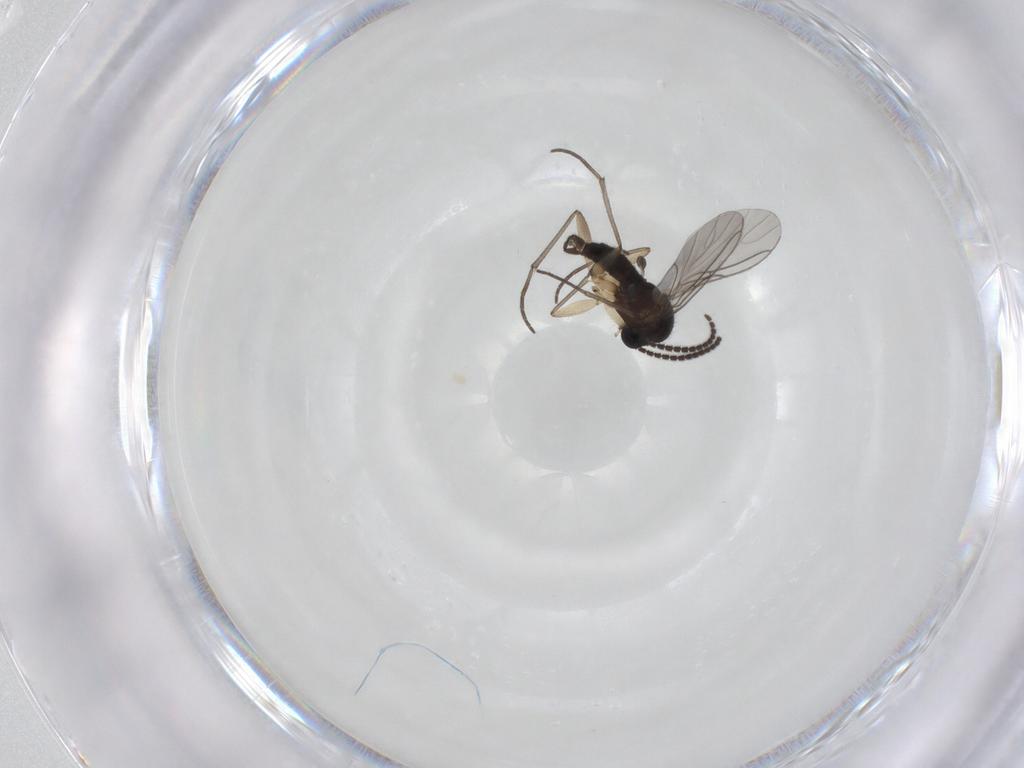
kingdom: Animalia
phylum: Arthropoda
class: Insecta
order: Diptera
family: Sciaridae
